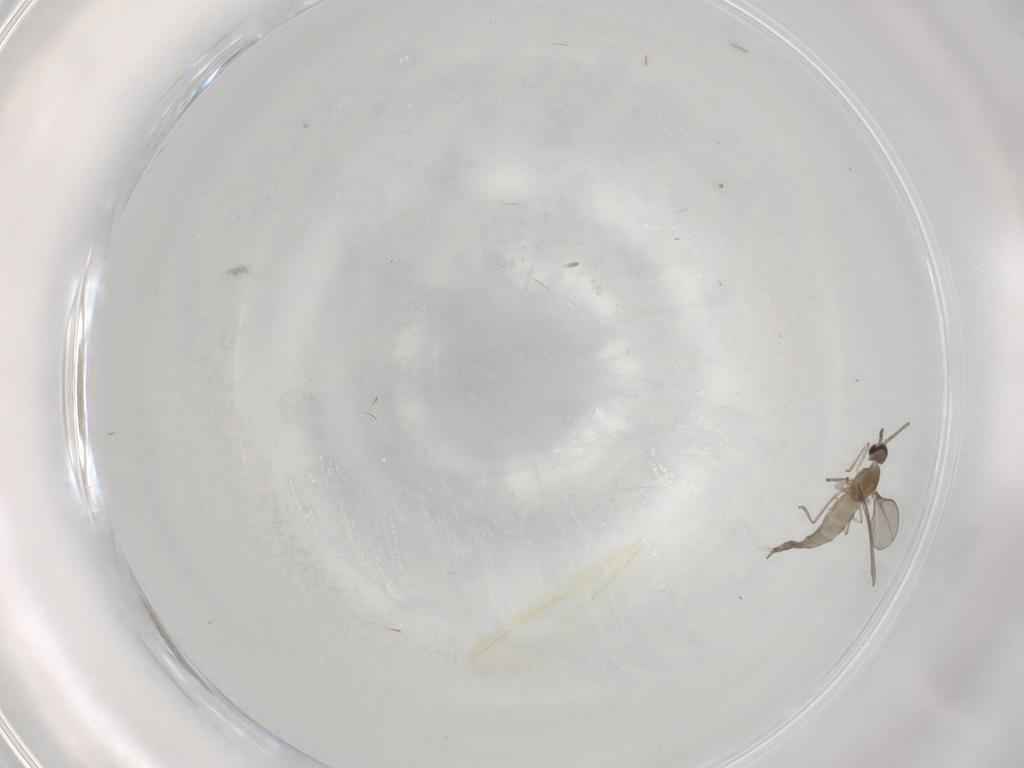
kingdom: Animalia
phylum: Arthropoda
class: Insecta
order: Diptera
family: Cecidomyiidae
